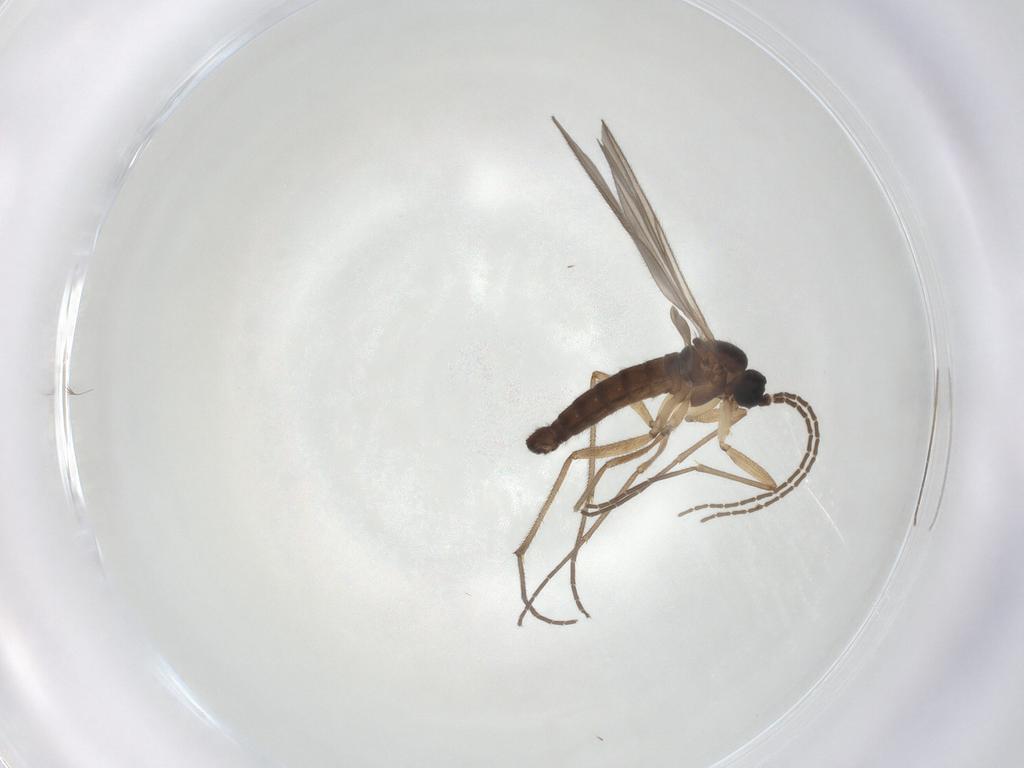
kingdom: Animalia
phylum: Arthropoda
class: Insecta
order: Diptera
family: Sciaridae
